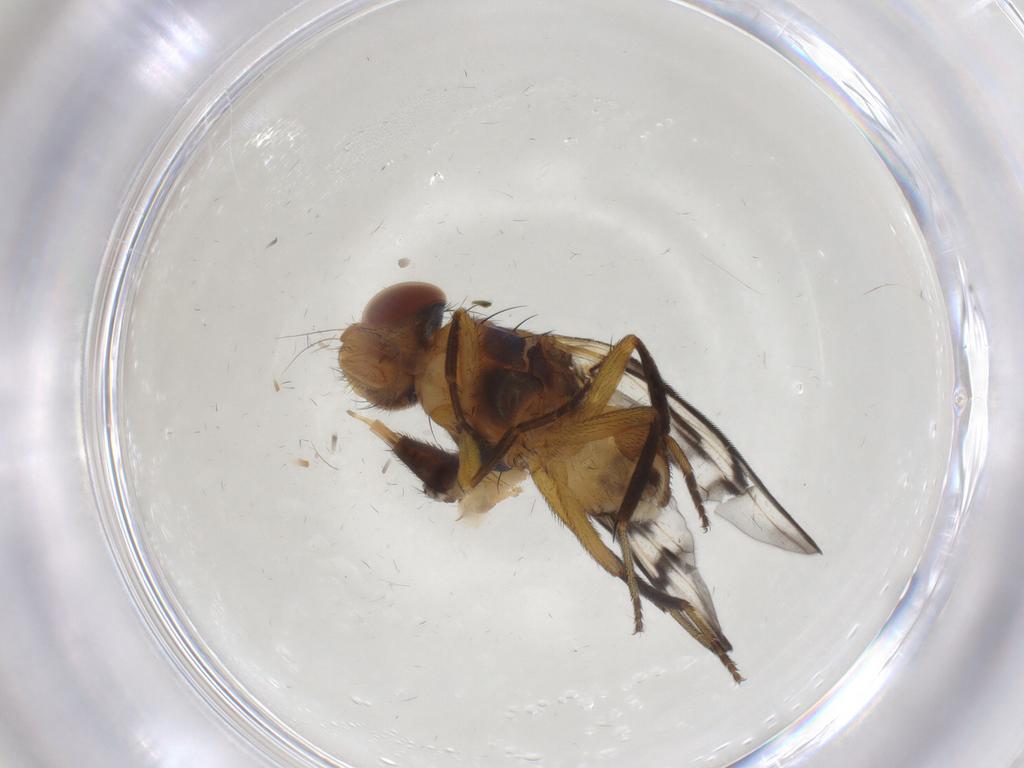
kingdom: Animalia
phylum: Arthropoda
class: Insecta
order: Diptera
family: Ulidiidae
